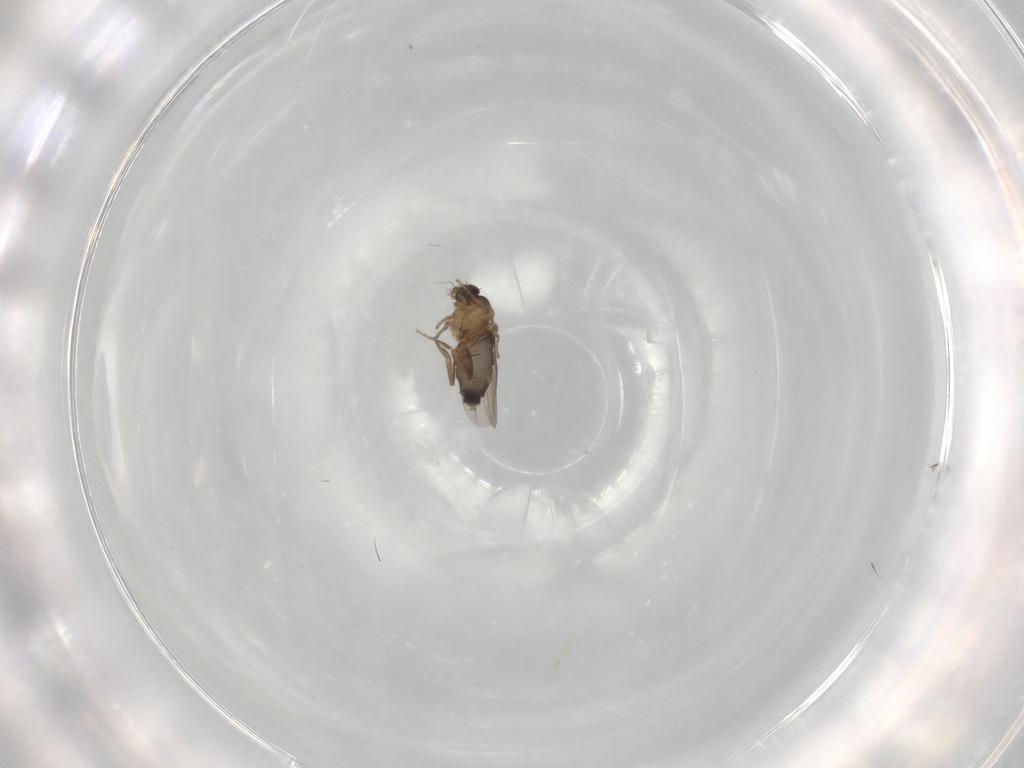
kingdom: Animalia
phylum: Arthropoda
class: Insecta
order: Diptera
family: Phoridae
